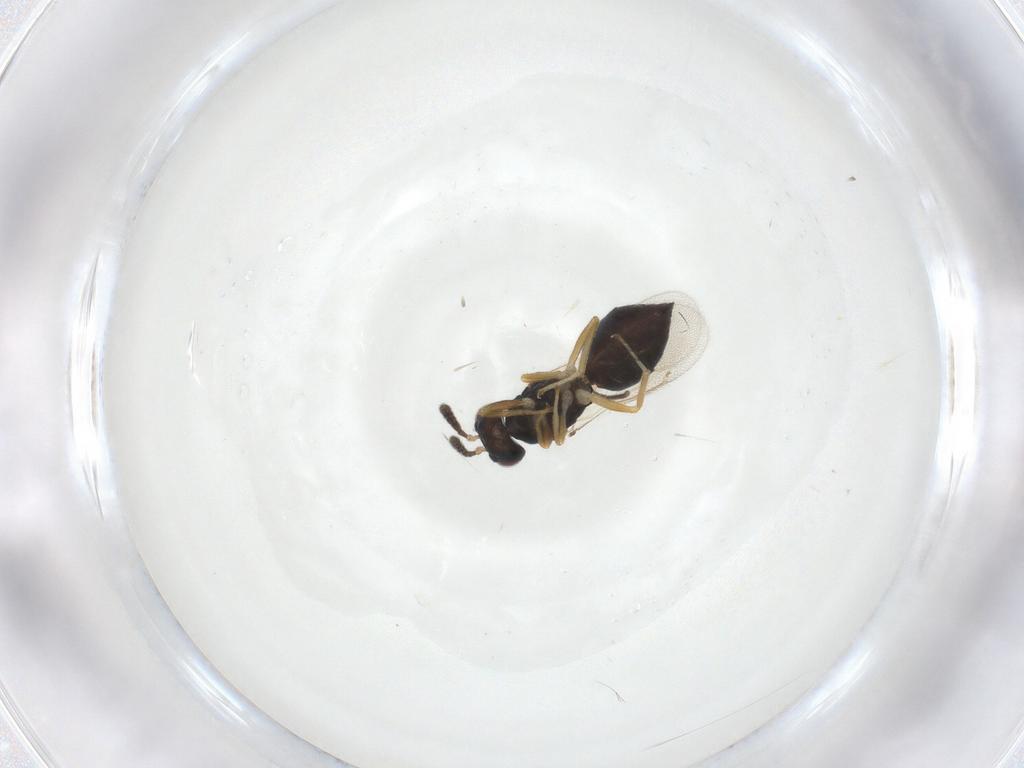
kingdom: Animalia
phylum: Arthropoda
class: Insecta
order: Hymenoptera
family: Eulophidae
